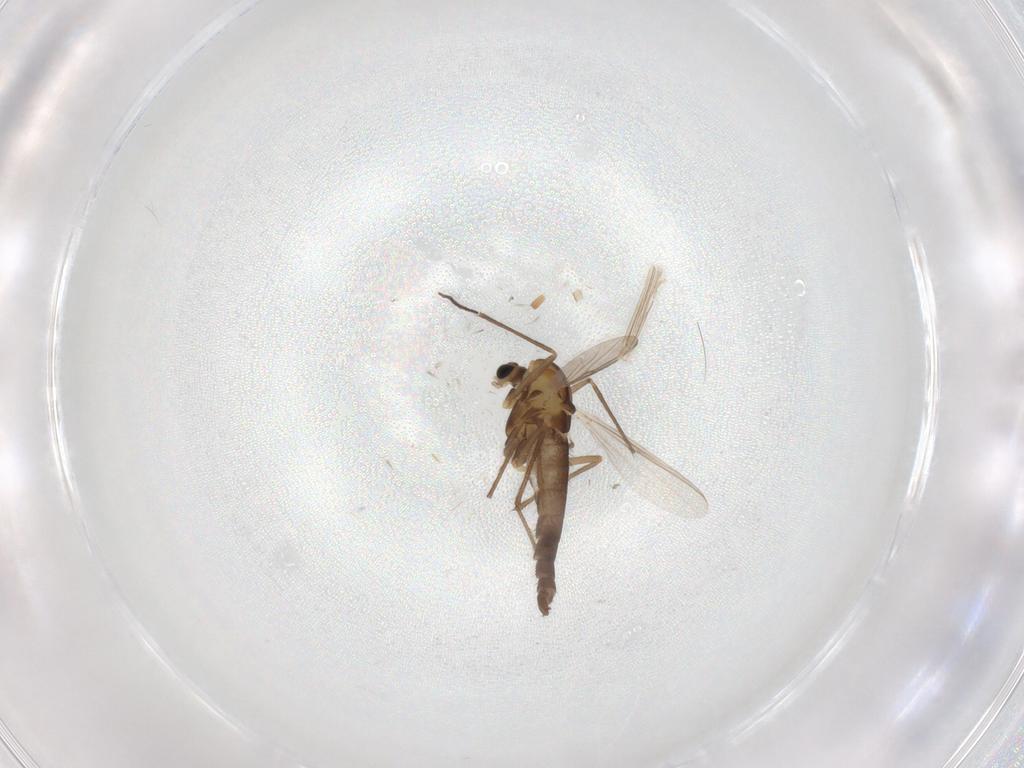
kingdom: Animalia
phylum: Arthropoda
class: Insecta
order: Diptera
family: Chironomidae
